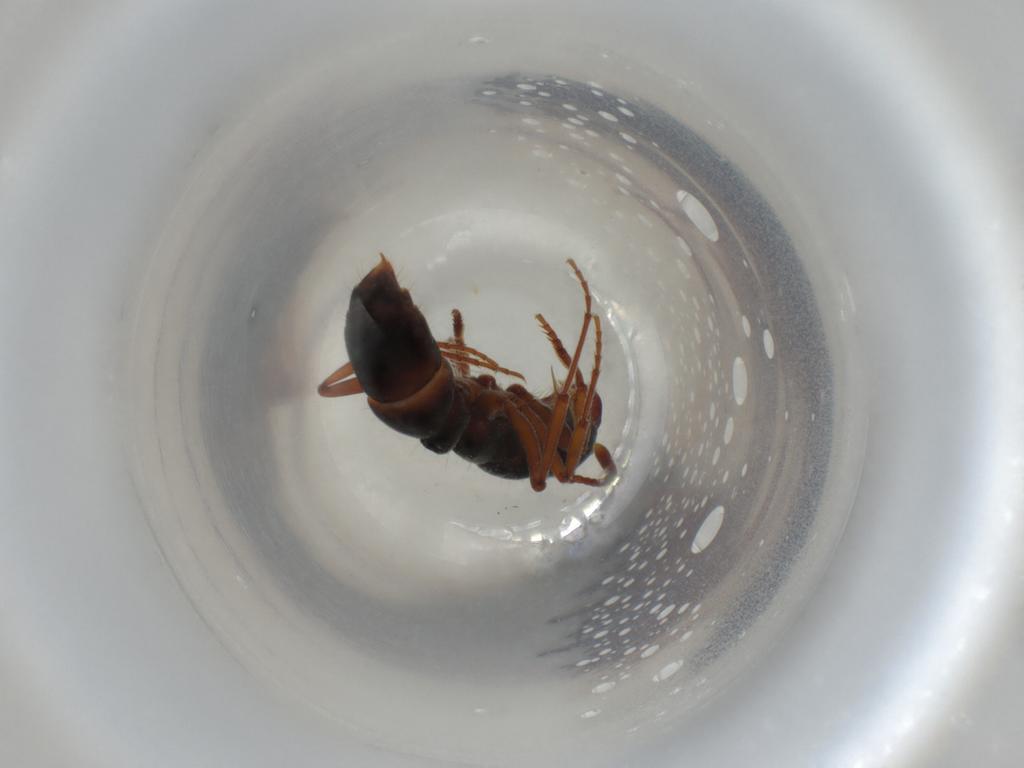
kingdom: Animalia
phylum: Arthropoda
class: Insecta
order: Hymenoptera
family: Formicidae
